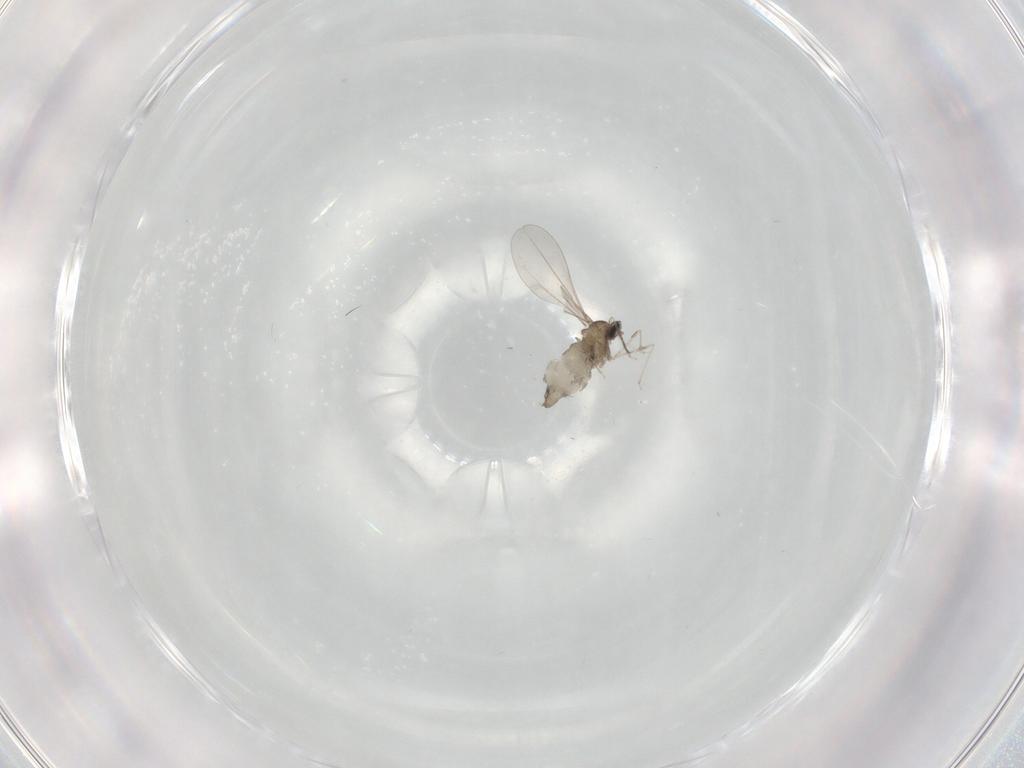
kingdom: Animalia
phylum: Arthropoda
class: Insecta
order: Diptera
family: Cecidomyiidae
